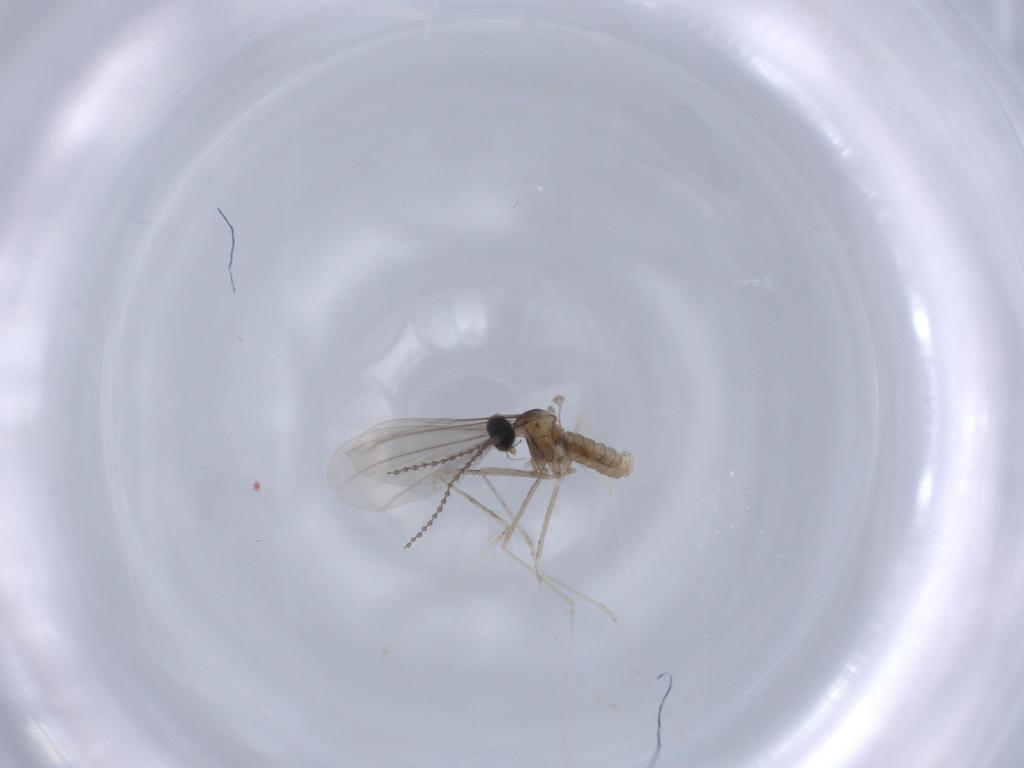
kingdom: Animalia
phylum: Arthropoda
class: Insecta
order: Diptera
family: Cecidomyiidae
